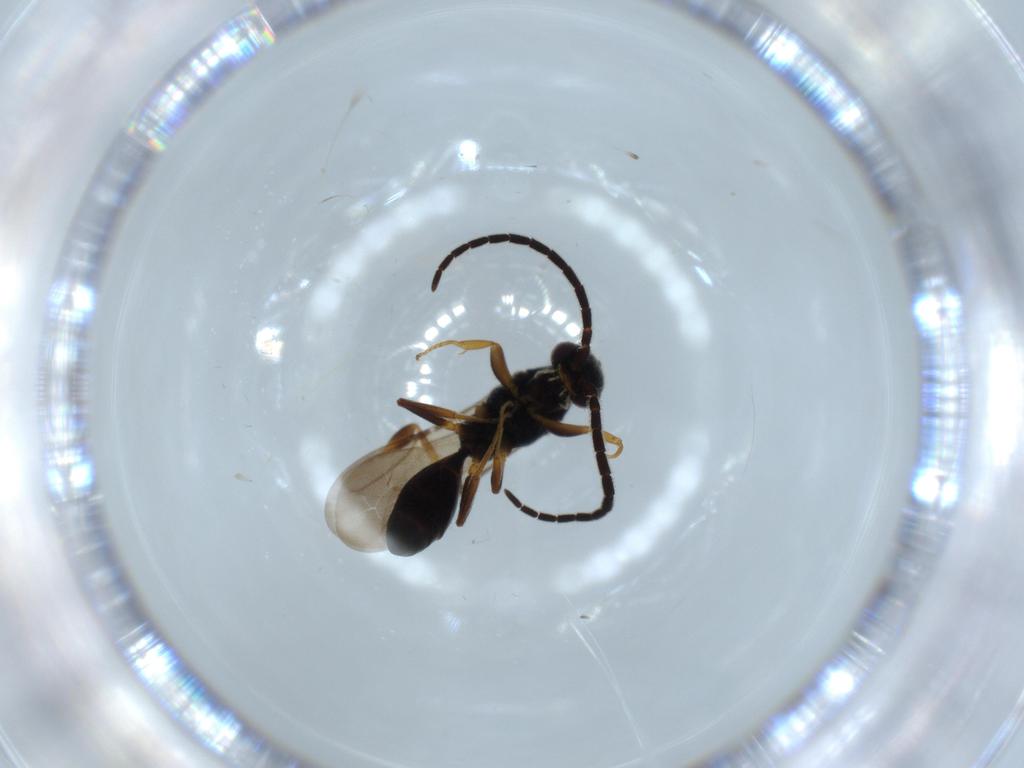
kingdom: Animalia
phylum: Arthropoda
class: Insecta
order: Hymenoptera
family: Bethylidae
